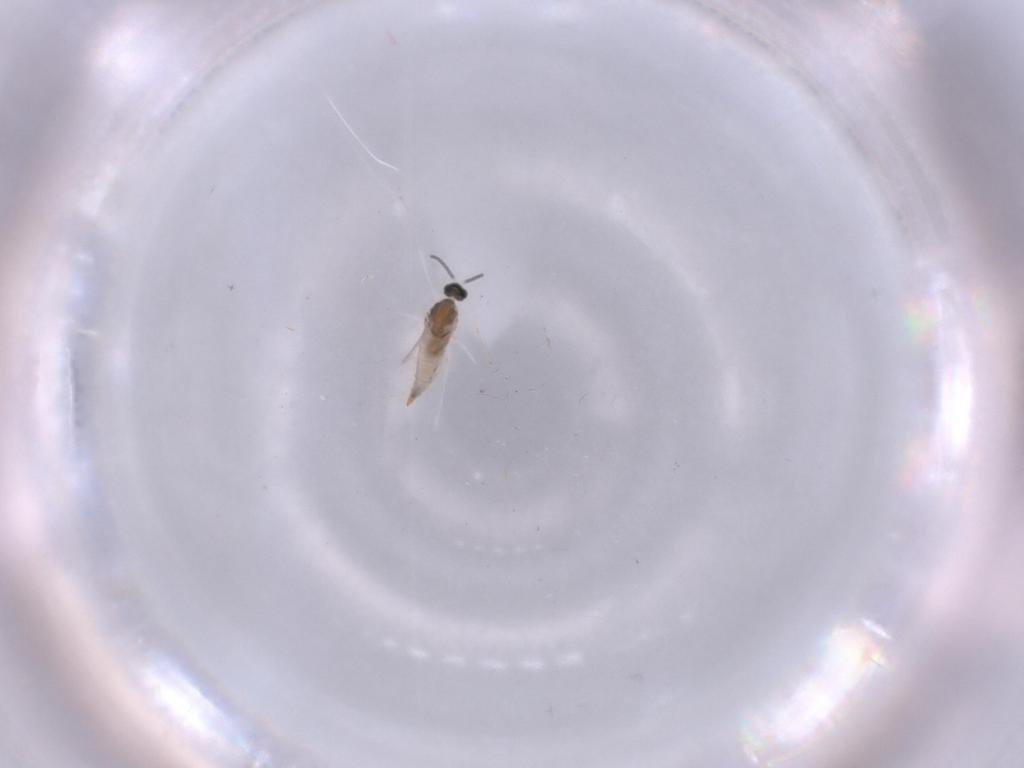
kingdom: Animalia
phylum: Arthropoda
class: Insecta
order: Diptera
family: Cecidomyiidae
